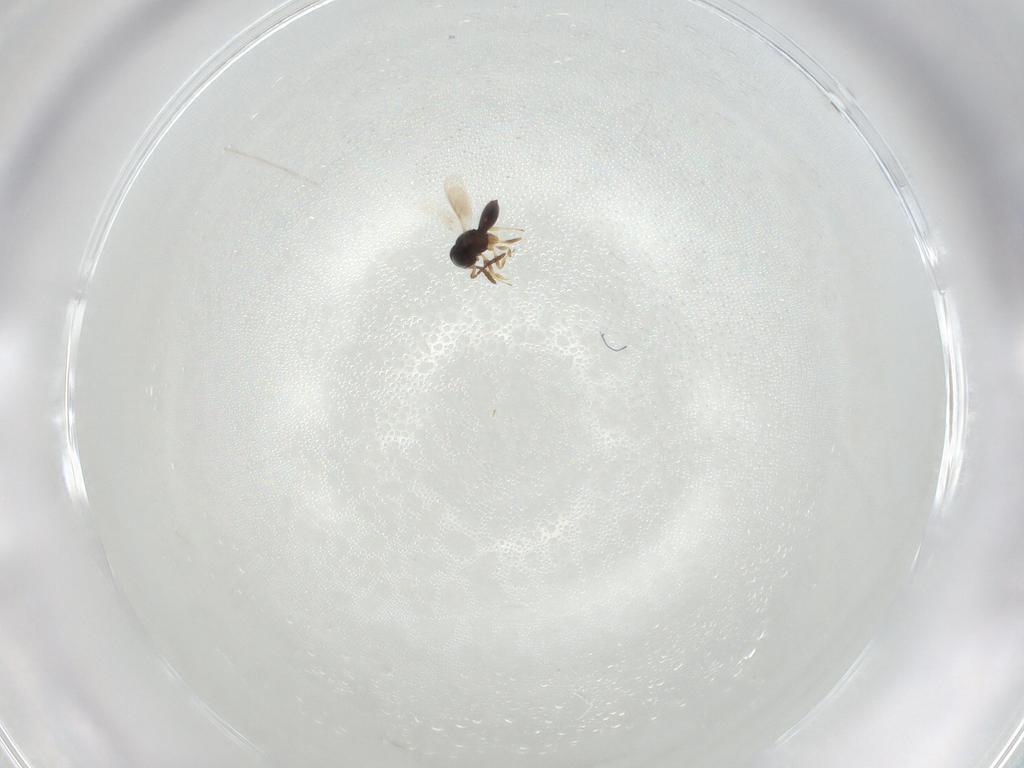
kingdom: Animalia
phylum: Arthropoda
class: Insecta
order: Hymenoptera
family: Scelionidae
